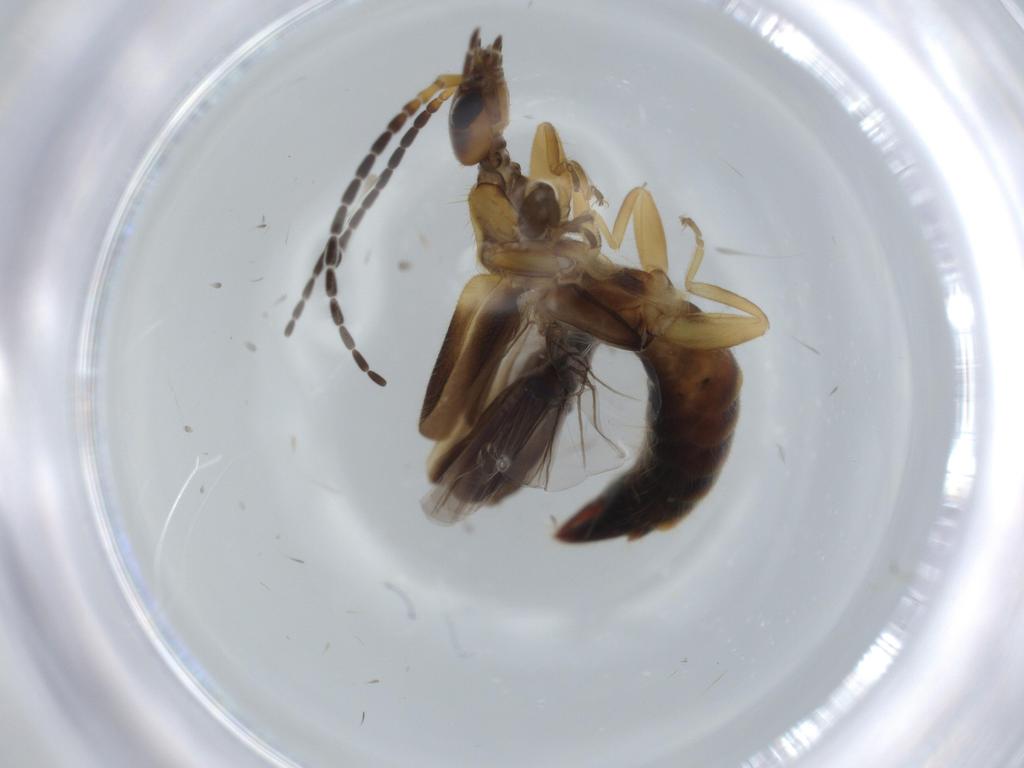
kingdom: Animalia
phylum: Arthropoda
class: Insecta
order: Dermaptera
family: Forficulidae
